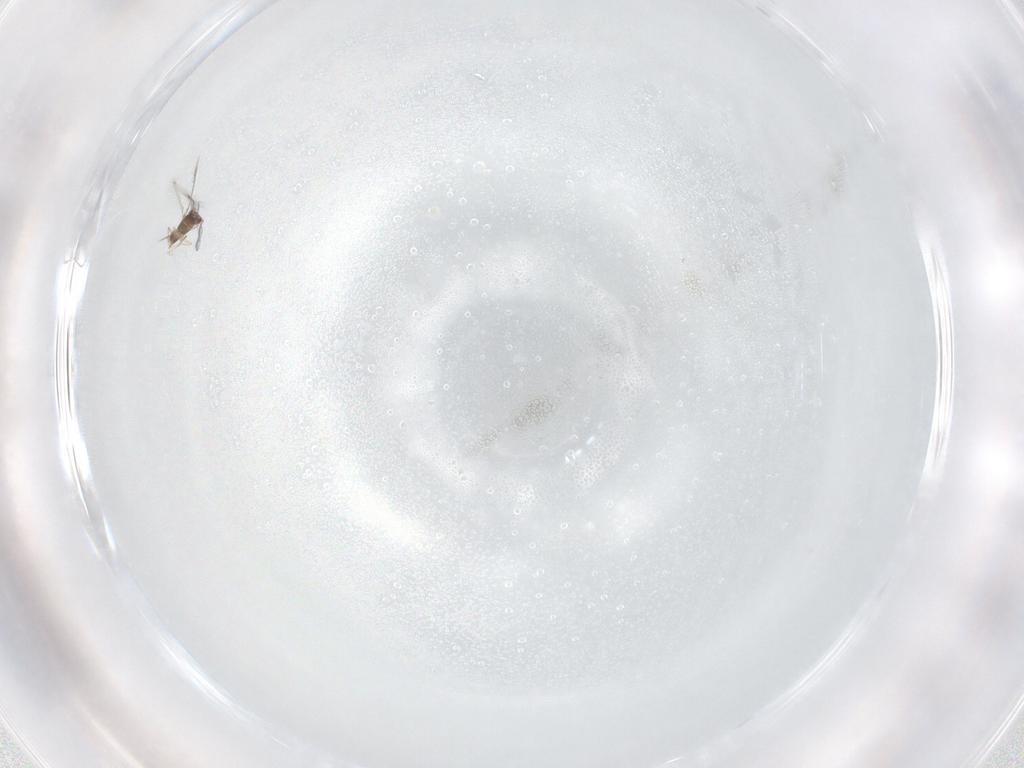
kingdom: Animalia
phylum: Arthropoda
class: Insecta
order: Hymenoptera
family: Mymaridae
